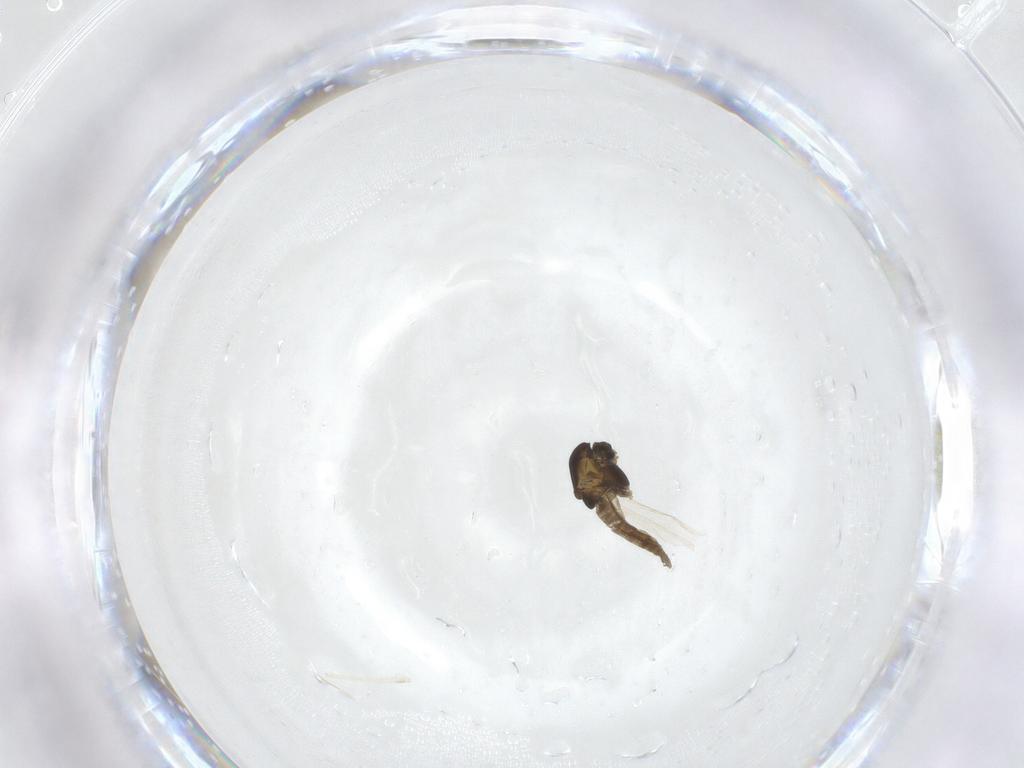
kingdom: Animalia
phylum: Arthropoda
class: Insecta
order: Diptera
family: Chironomidae
